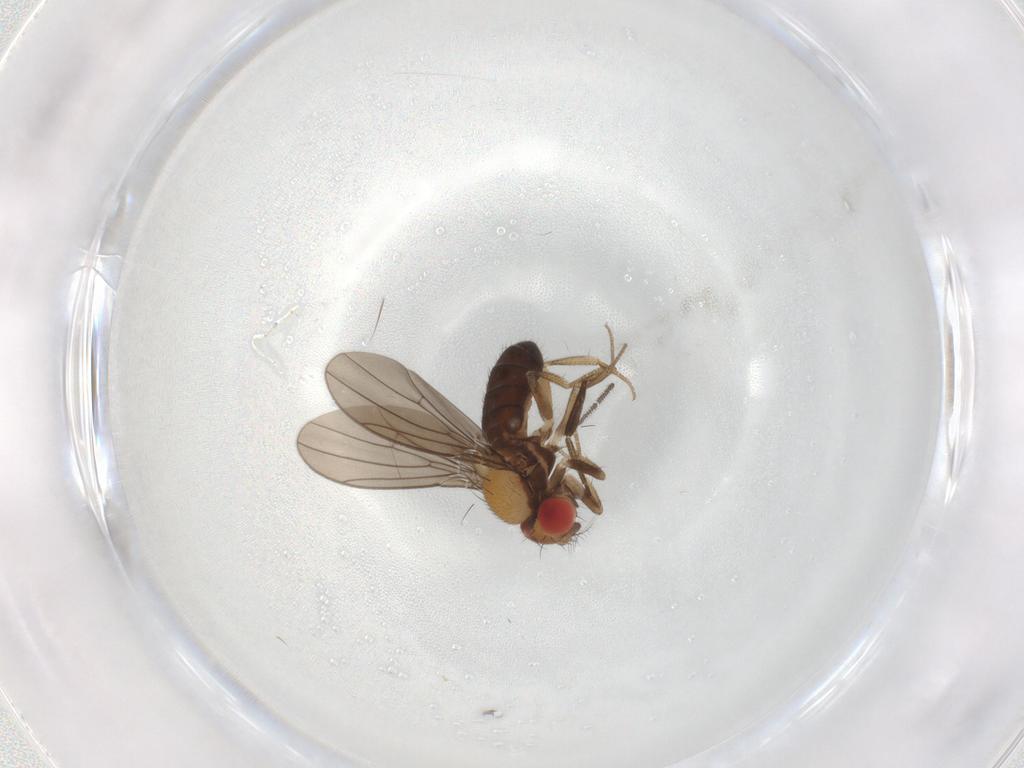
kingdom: Animalia
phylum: Arthropoda
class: Insecta
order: Diptera
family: Drosophilidae
